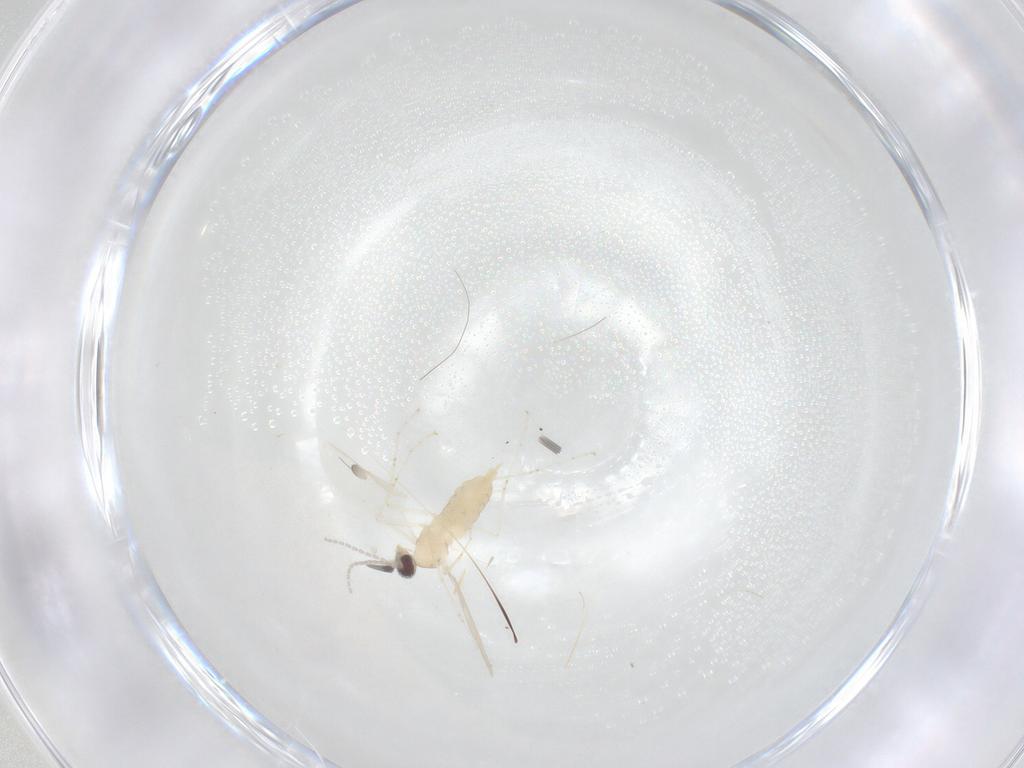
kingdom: Animalia
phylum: Arthropoda
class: Insecta
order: Diptera
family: Cecidomyiidae
